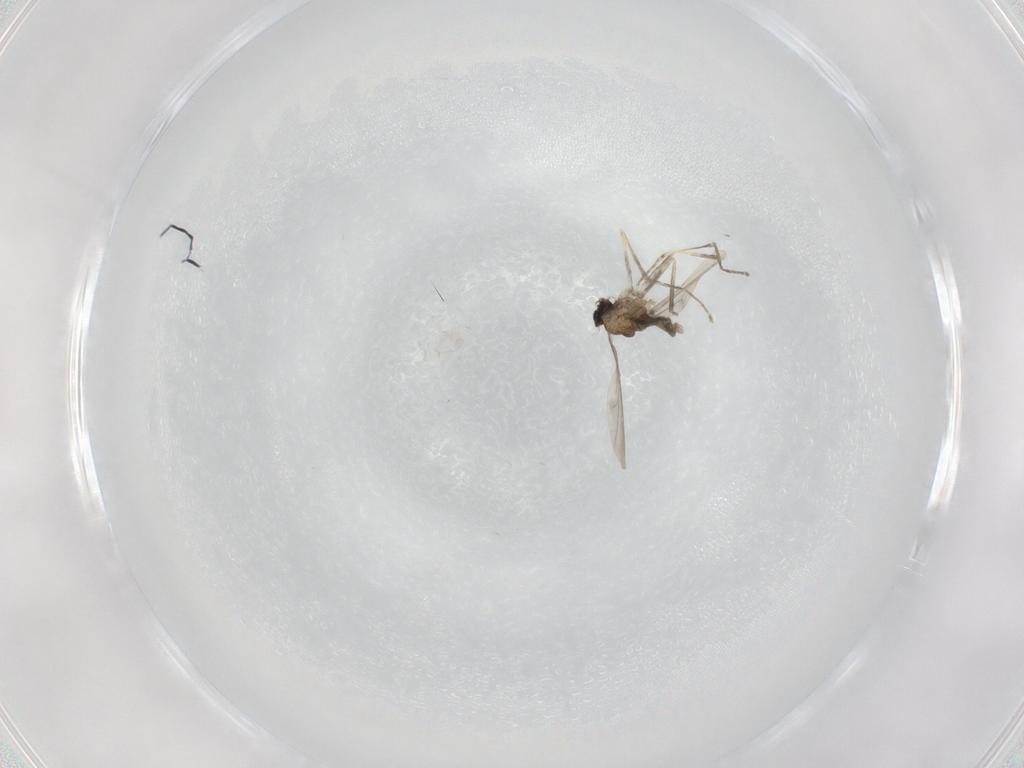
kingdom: Animalia
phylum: Arthropoda
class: Insecta
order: Diptera
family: Cecidomyiidae
